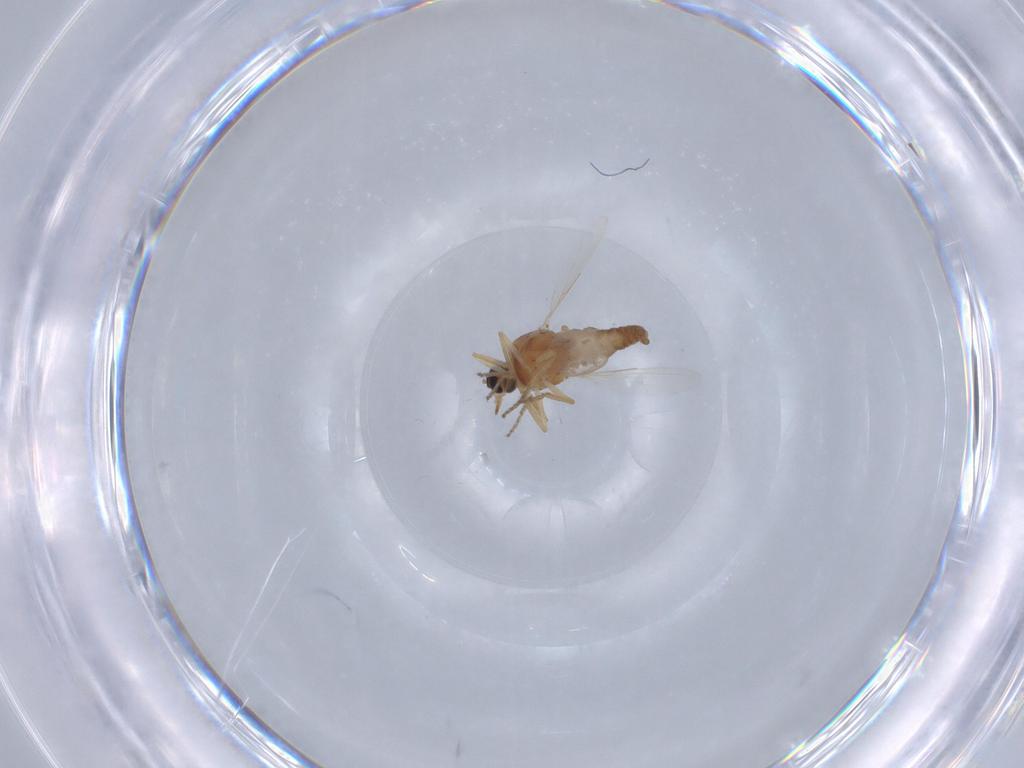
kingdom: Animalia
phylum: Arthropoda
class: Insecta
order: Diptera
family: Ceratopogonidae
